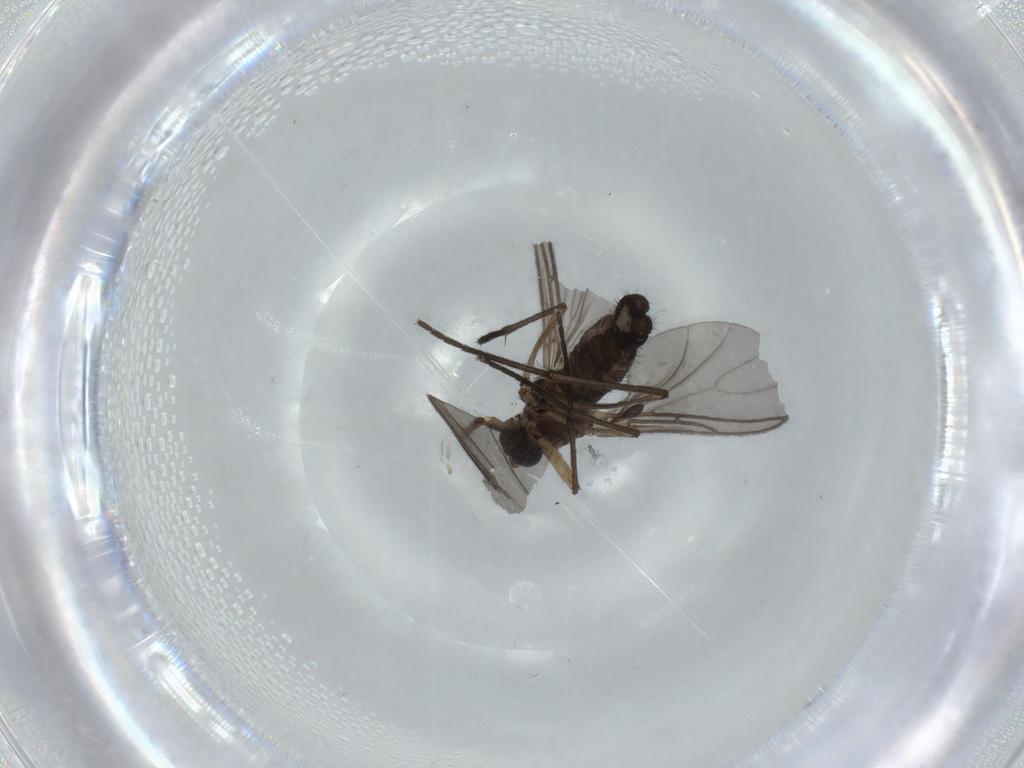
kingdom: Animalia
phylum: Arthropoda
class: Insecta
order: Diptera
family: Sciaridae
